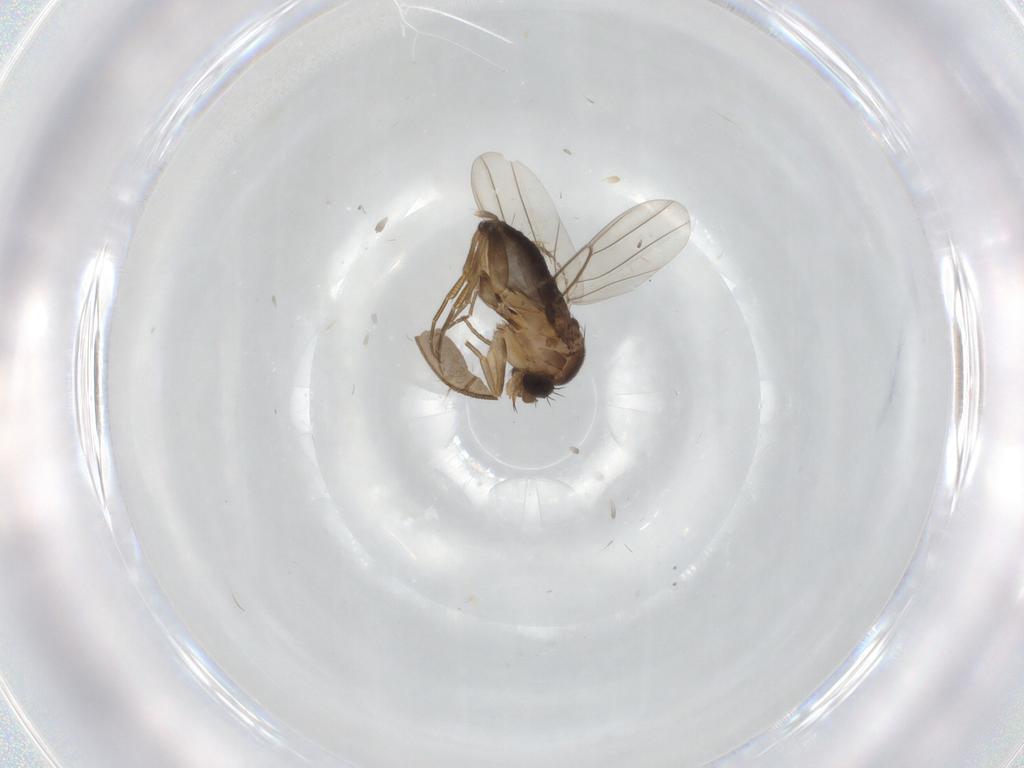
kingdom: Animalia
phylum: Arthropoda
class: Insecta
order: Diptera
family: Phoridae
